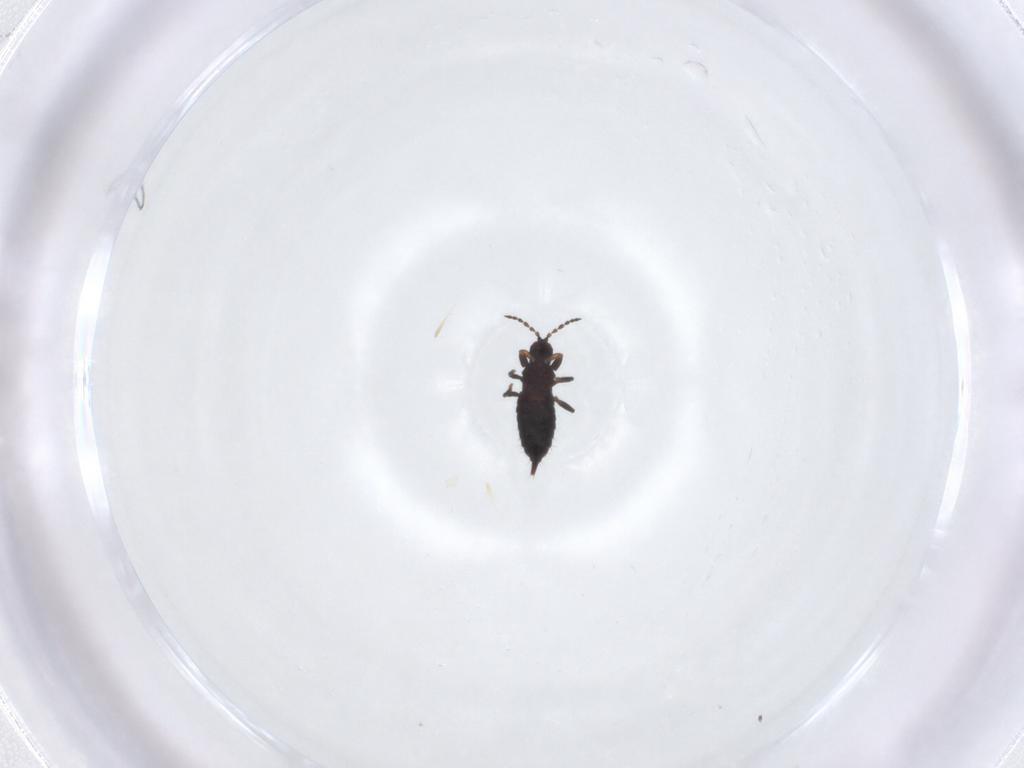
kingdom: Animalia
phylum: Arthropoda
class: Insecta
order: Thysanoptera
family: Phlaeothripidae
